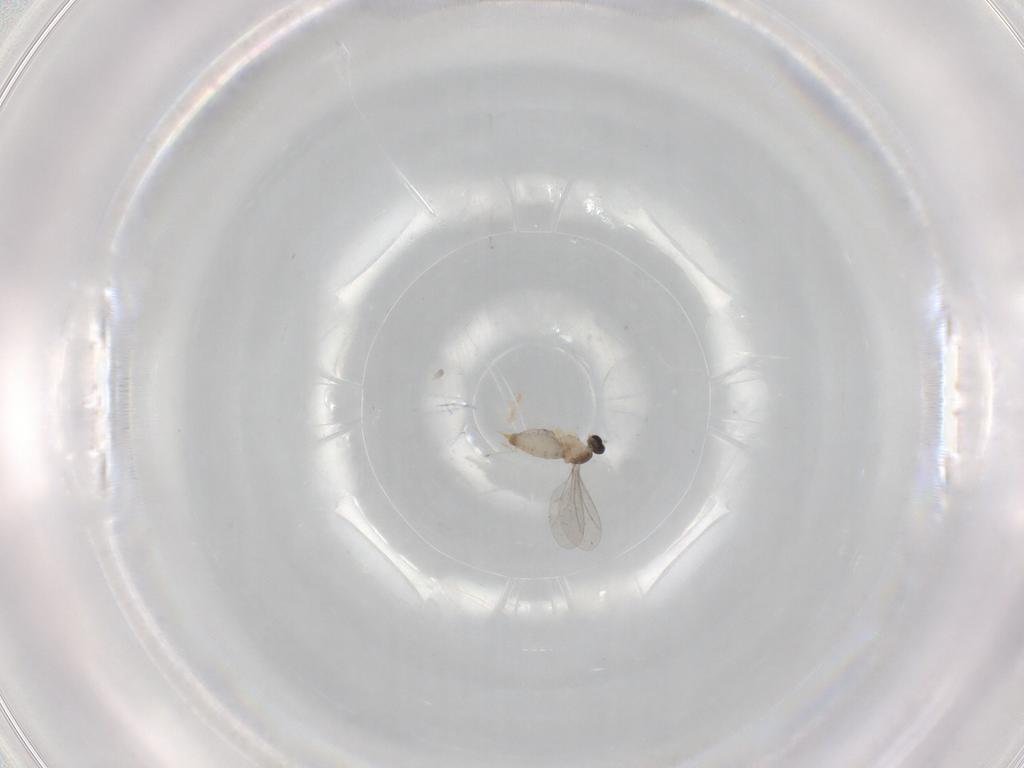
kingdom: Animalia
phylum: Arthropoda
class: Insecta
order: Diptera
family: Cecidomyiidae
